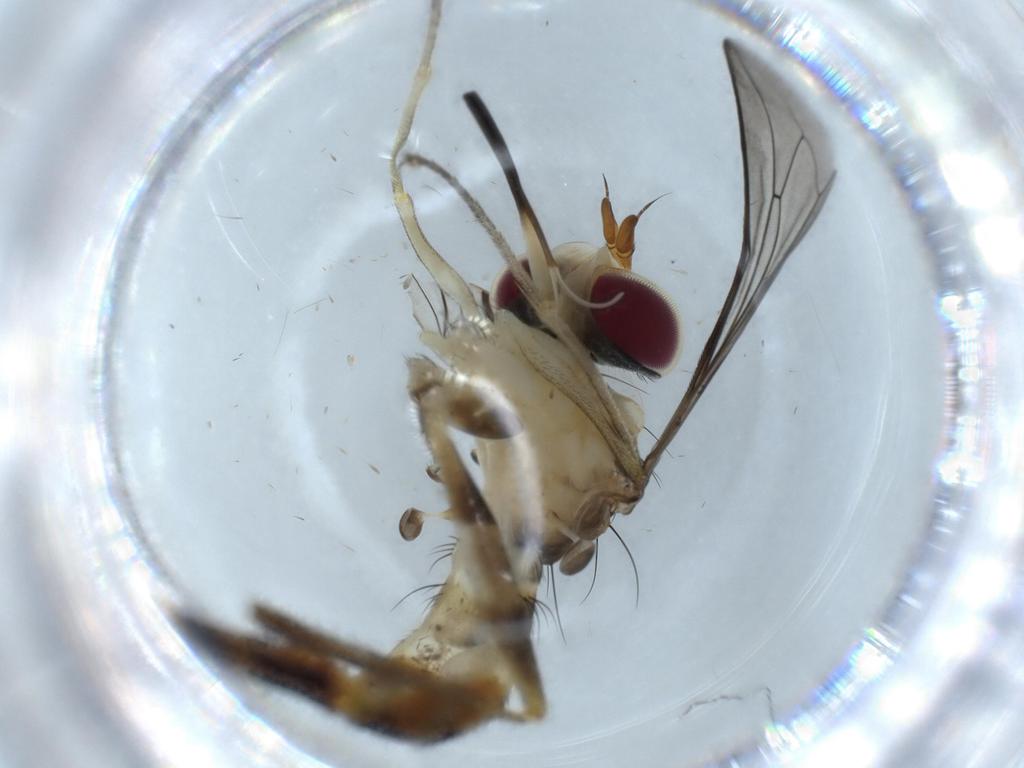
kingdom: Animalia
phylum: Arthropoda
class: Insecta
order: Diptera
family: Conopidae
